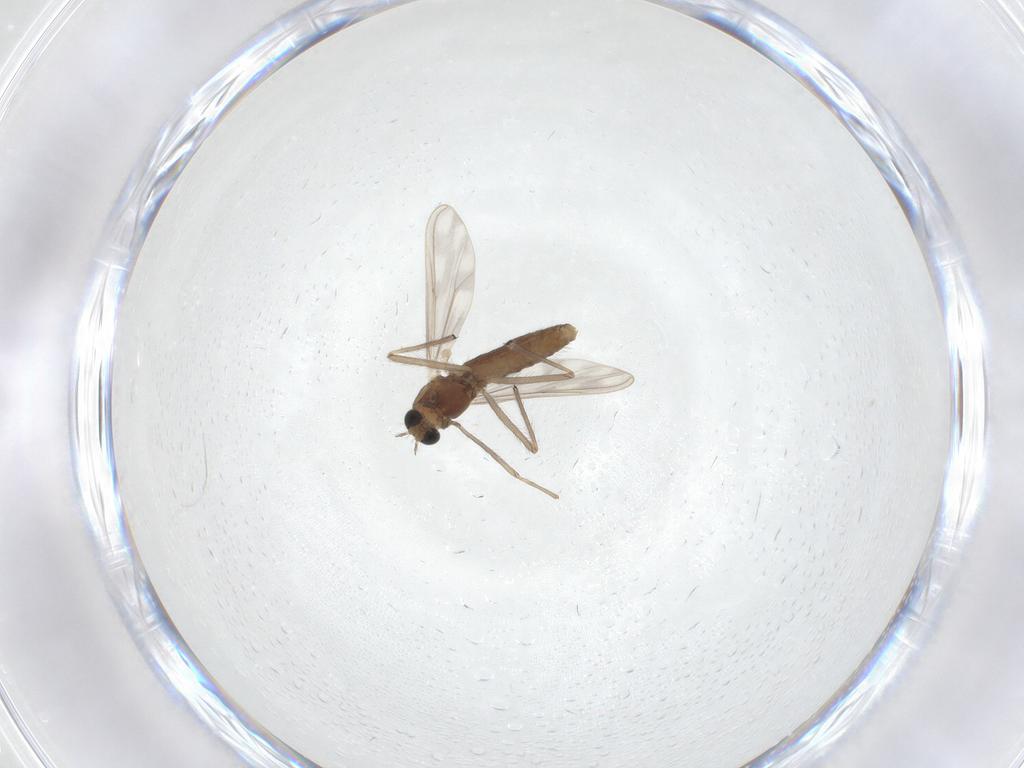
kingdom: Animalia
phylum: Arthropoda
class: Insecta
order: Diptera
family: Chironomidae
